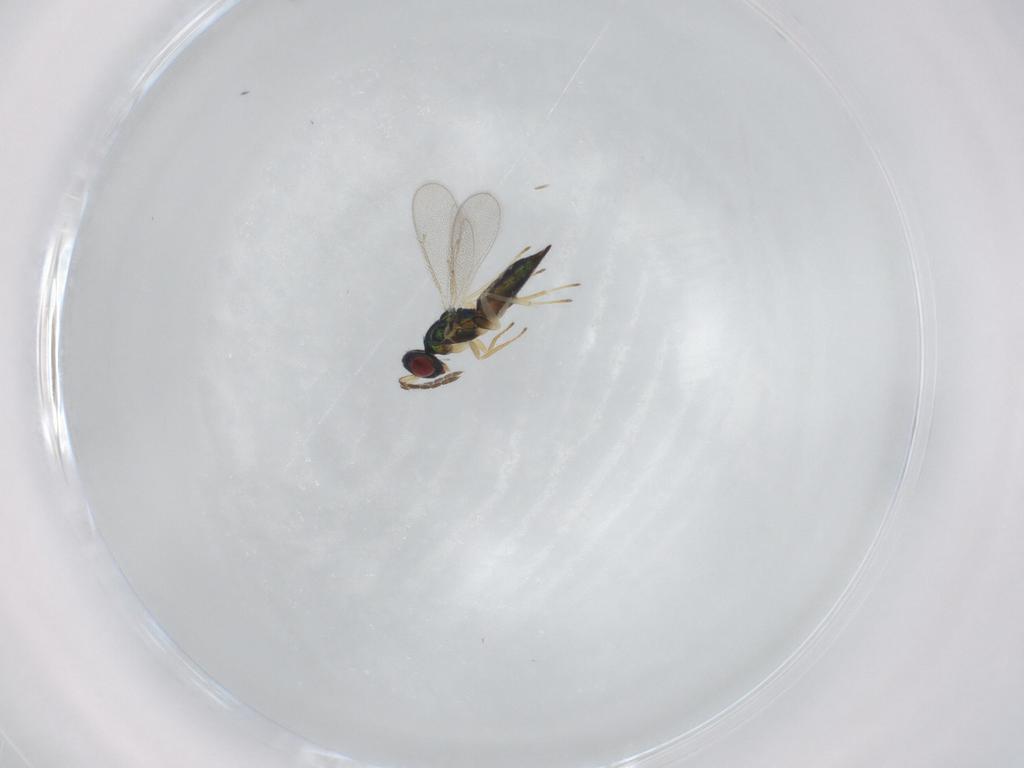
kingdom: Animalia
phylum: Arthropoda
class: Insecta
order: Hymenoptera
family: Eulophidae
